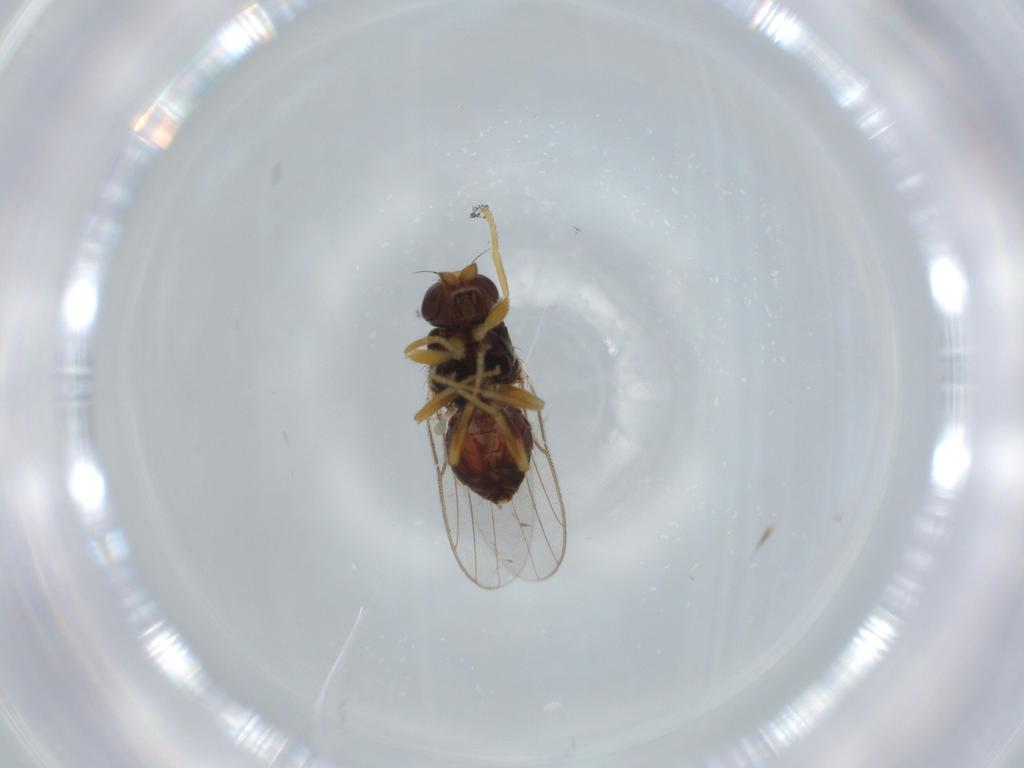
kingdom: Animalia
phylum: Arthropoda
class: Insecta
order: Diptera
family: Chloropidae
